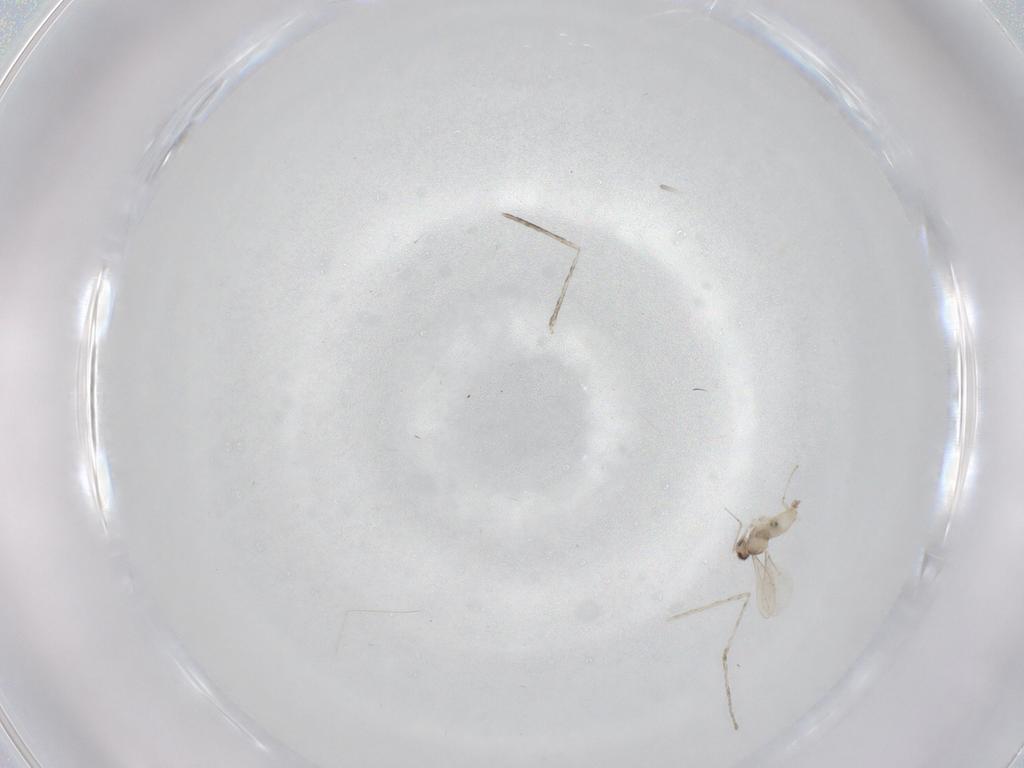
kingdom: Animalia
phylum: Arthropoda
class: Insecta
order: Diptera
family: Cecidomyiidae
